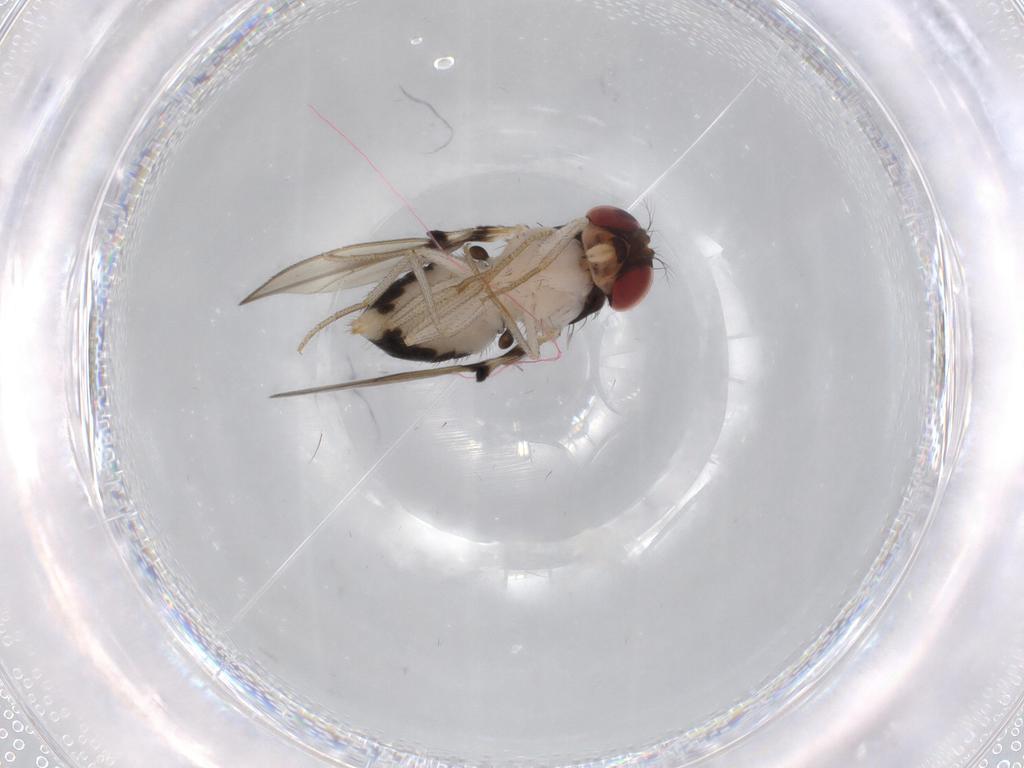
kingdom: Animalia
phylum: Arthropoda
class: Insecta
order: Diptera
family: Drosophilidae
